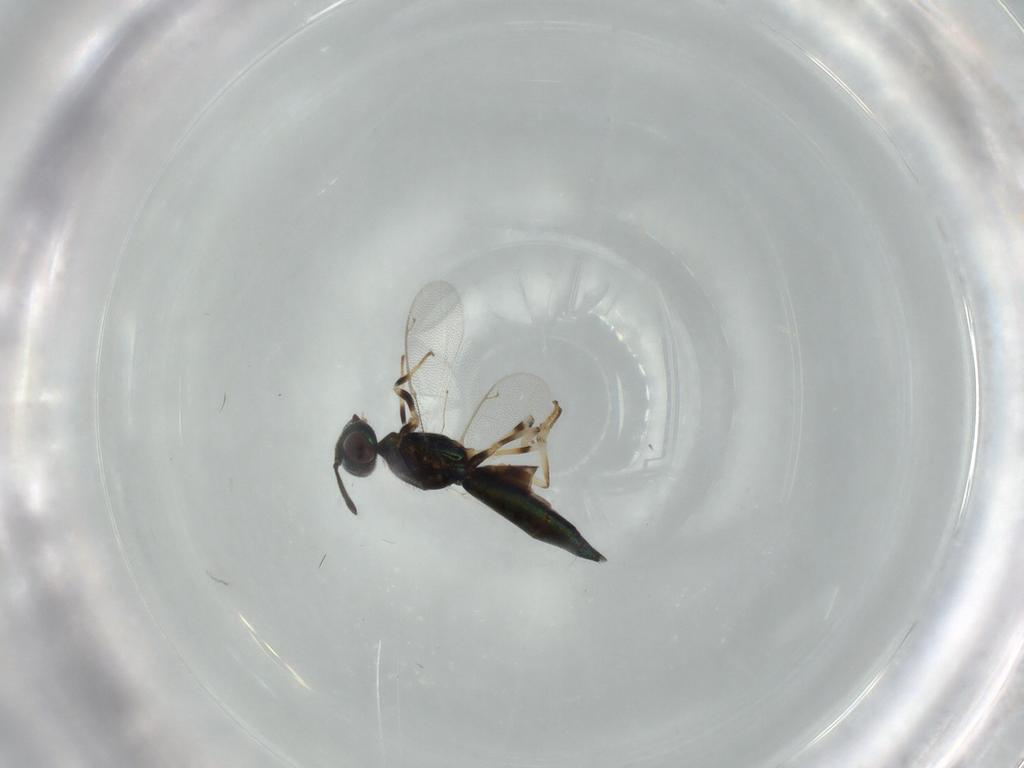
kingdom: Animalia
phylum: Arthropoda
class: Insecta
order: Hymenoptera
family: Eupelmidae
